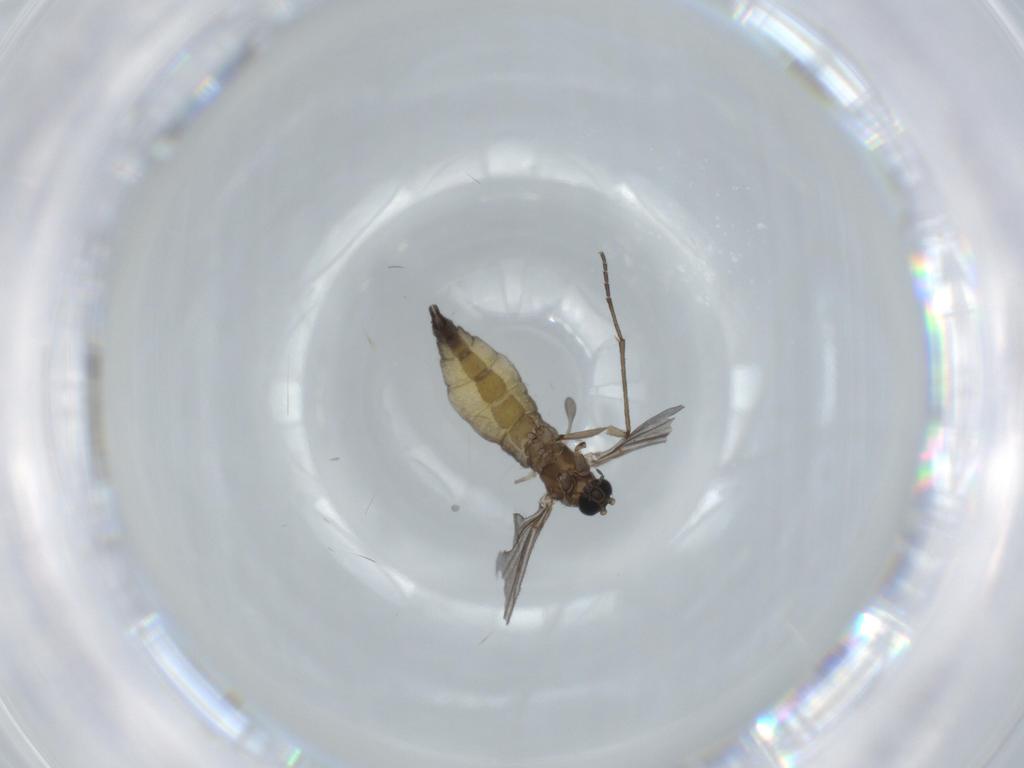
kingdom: Animalia
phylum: Arthropoda
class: Insecta
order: Diptera
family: Sciaridae
